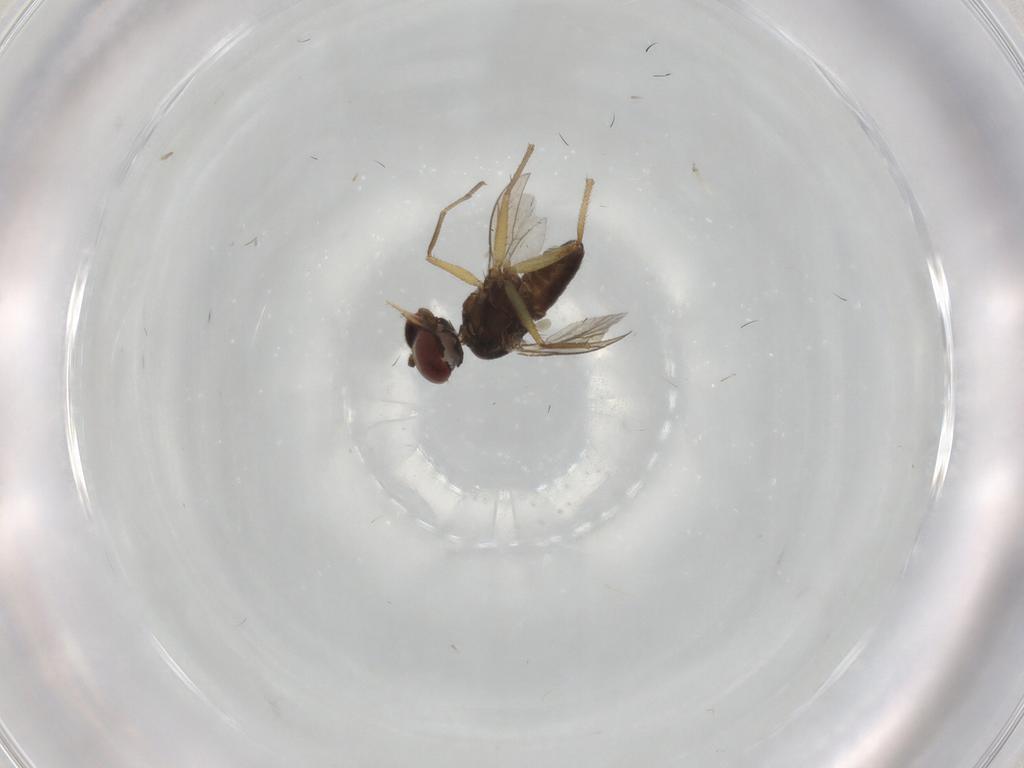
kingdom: Animalia
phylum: Arthropoda
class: Insecta
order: Diptera
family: Dolichopodidae
